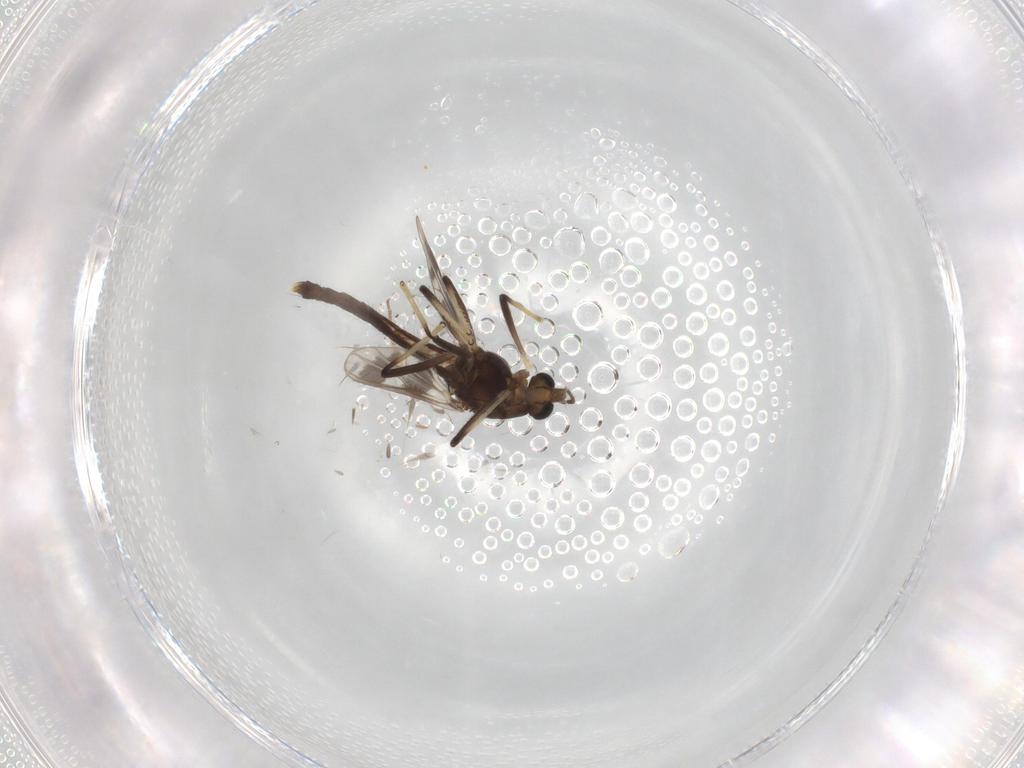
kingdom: Animalia
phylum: Arthropoda
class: Insecta
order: Diptera
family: Chironomidae
